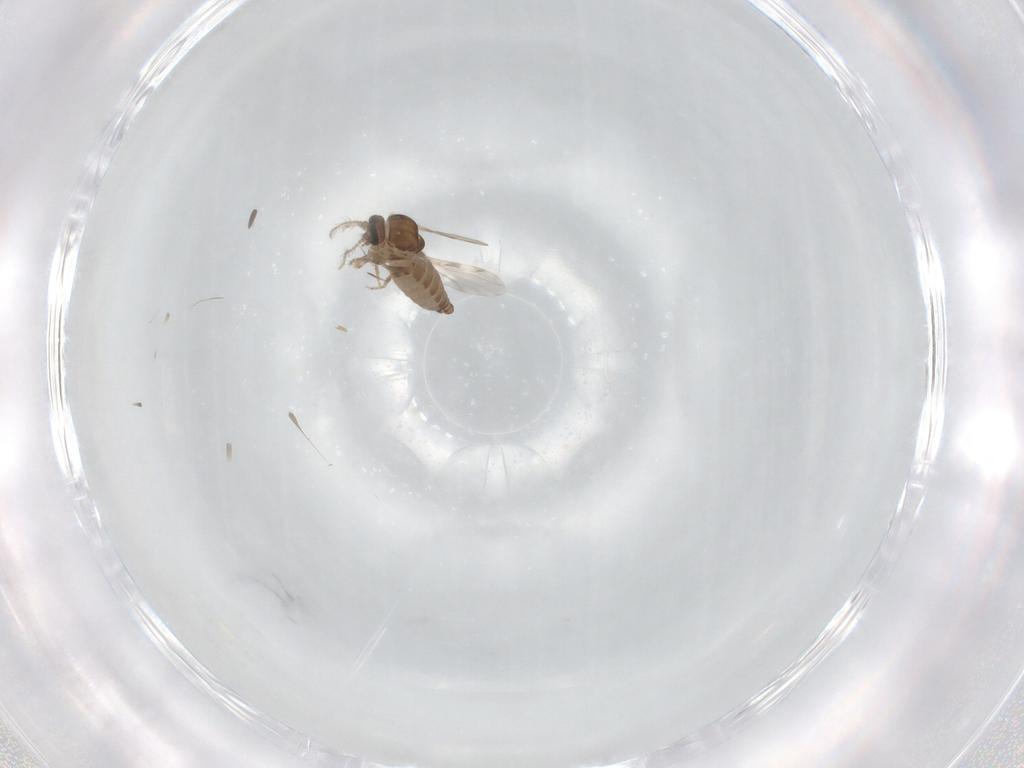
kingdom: Animalia
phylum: Arthropoda
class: Insecta
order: Diptera
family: Ceratopogonidae
